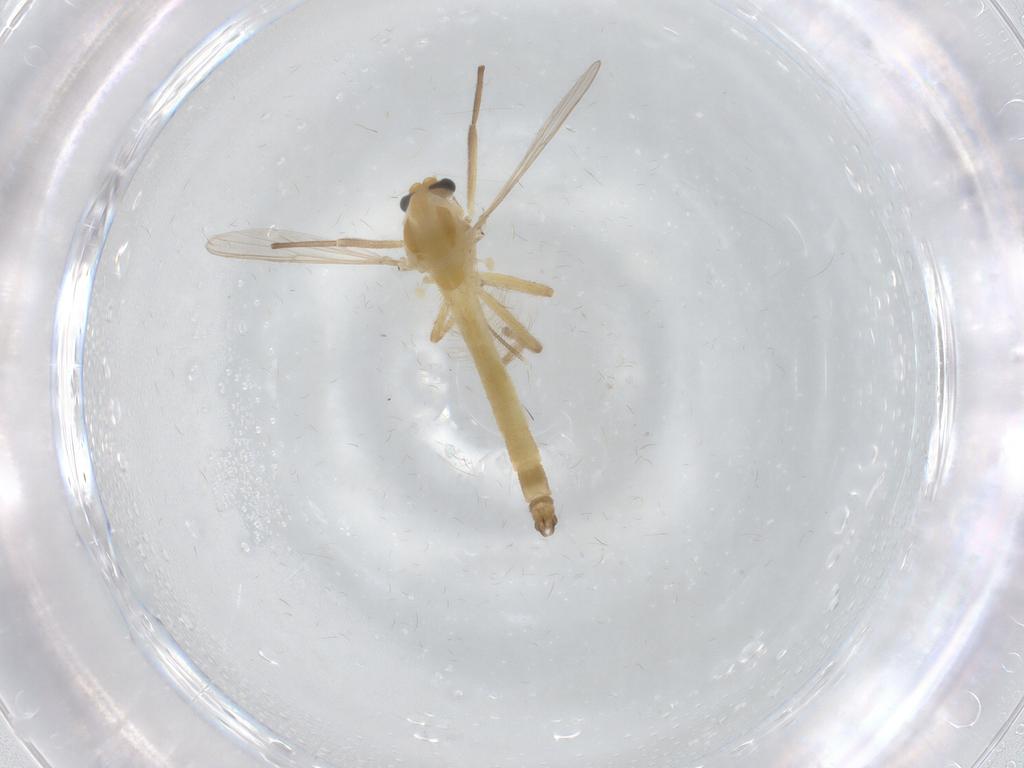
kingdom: Animalia
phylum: Arthropoda
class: Insecta
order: Diptera
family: Chironomidae
